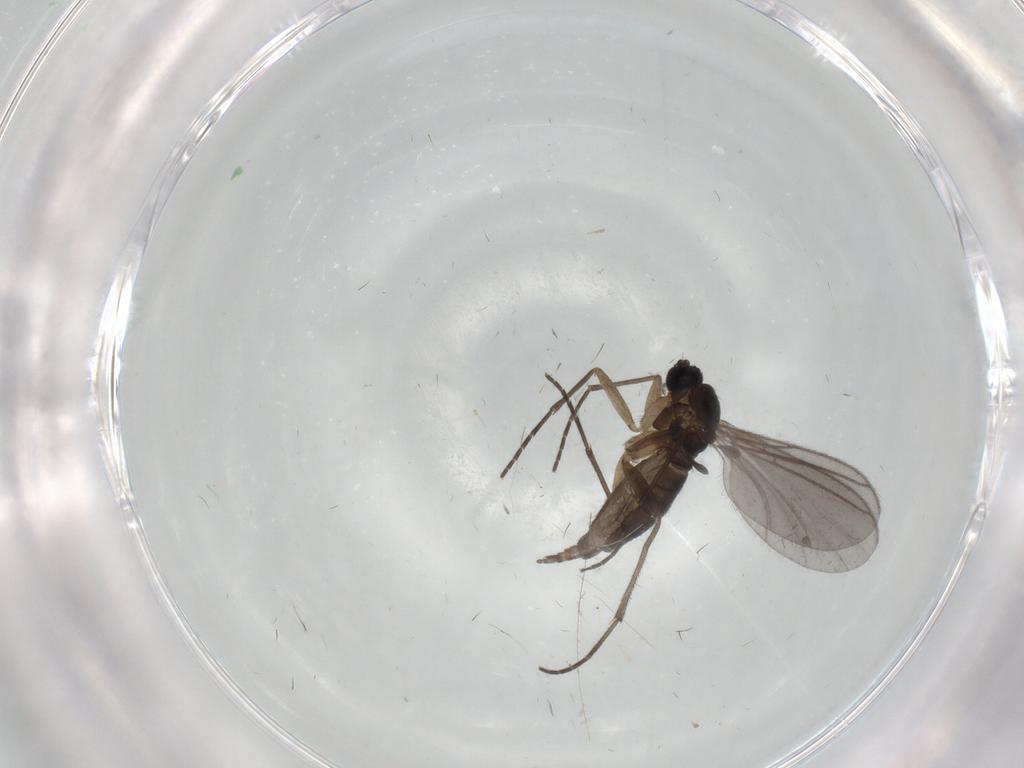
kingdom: Animalia
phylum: Arthropoda
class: Insecta
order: Diptera
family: Sciaridae
